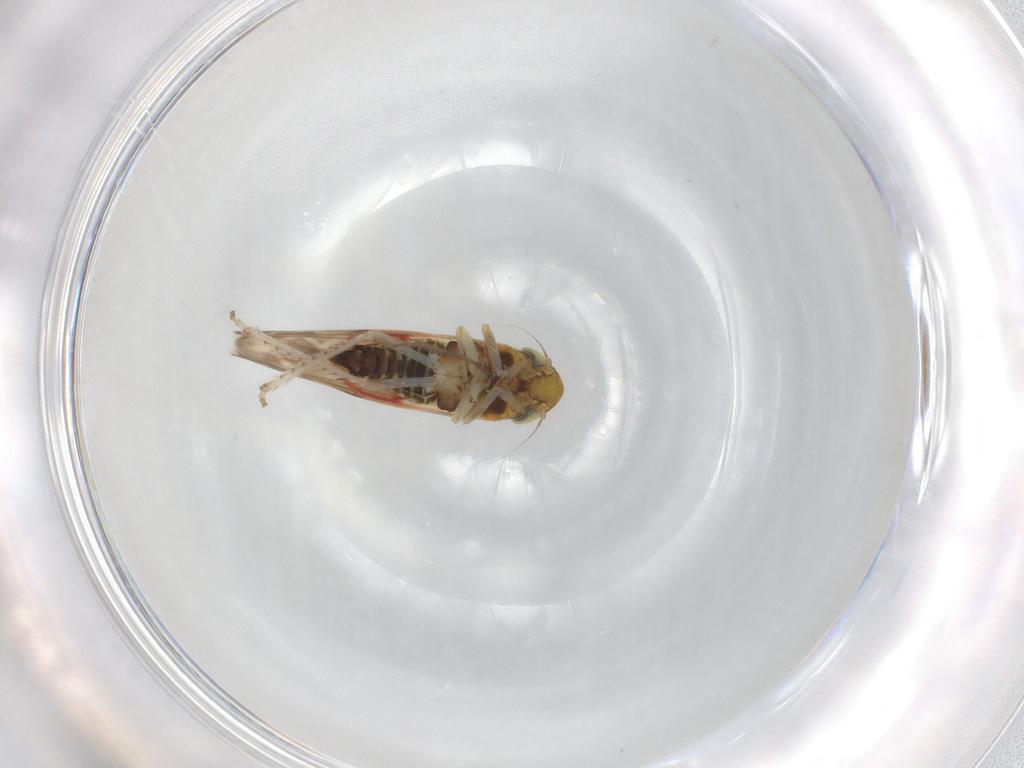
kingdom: Animalia
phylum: Arthropoda
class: Insecta
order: Hemiptera
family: Cicadellidae
